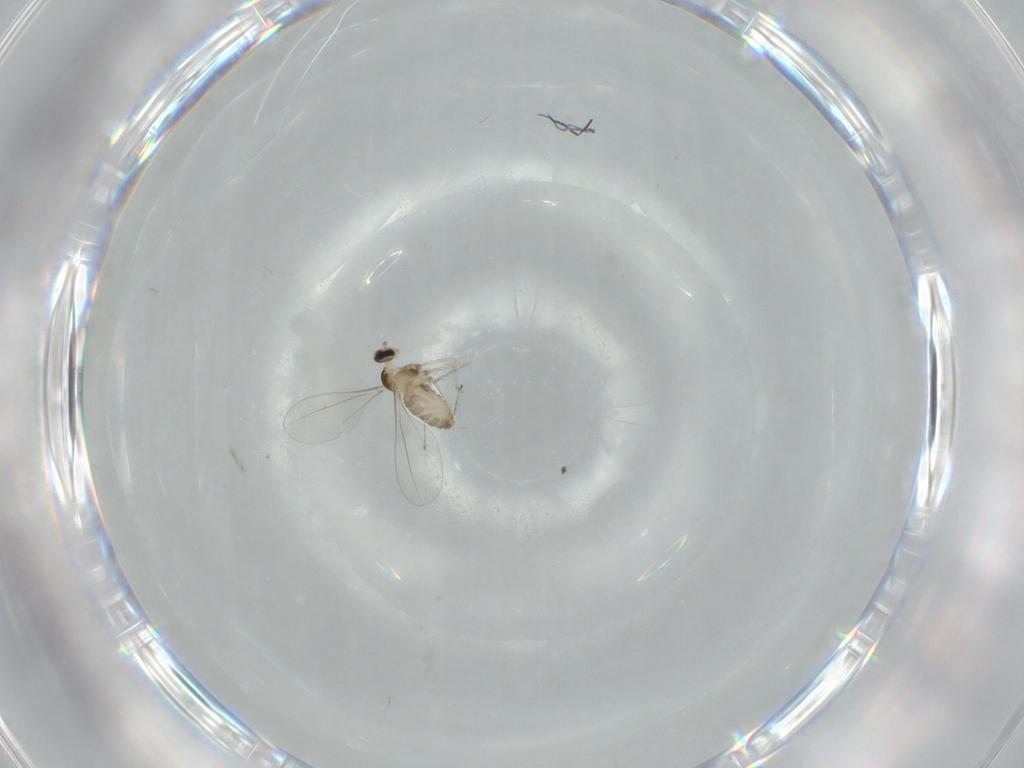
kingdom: Animalia
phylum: Arthropoda
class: Insecta
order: Diptera
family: Chironomidae
